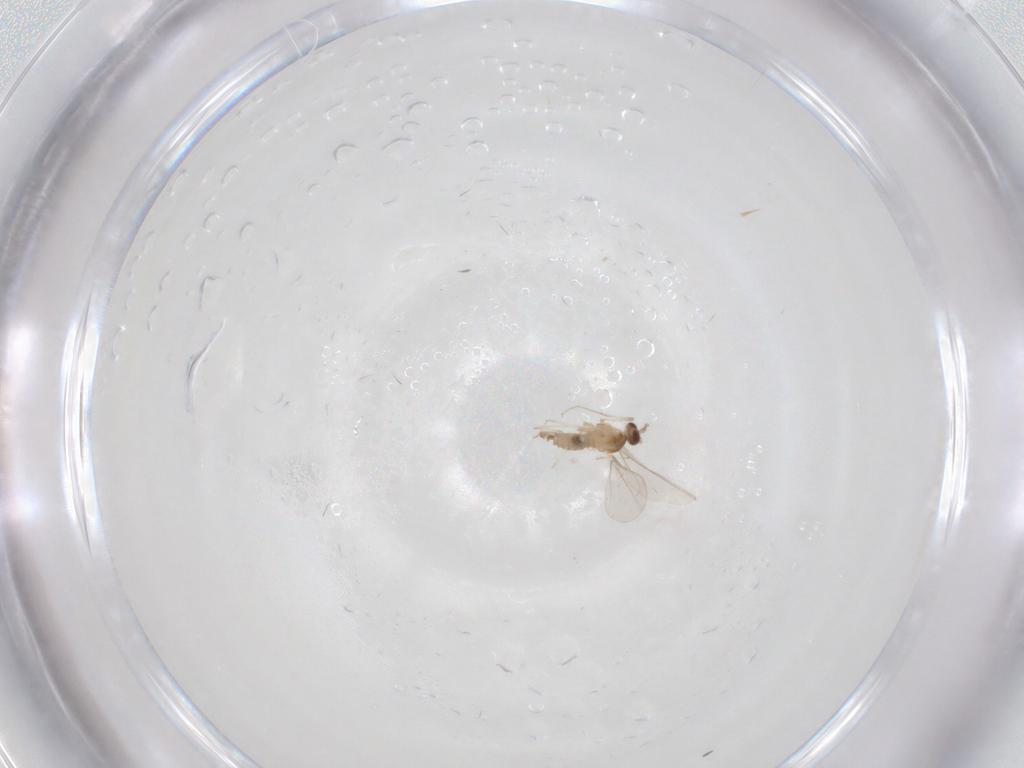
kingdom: Animalia
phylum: Arthropoda
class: Insecta
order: Diptera
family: Cecidomyiidae
